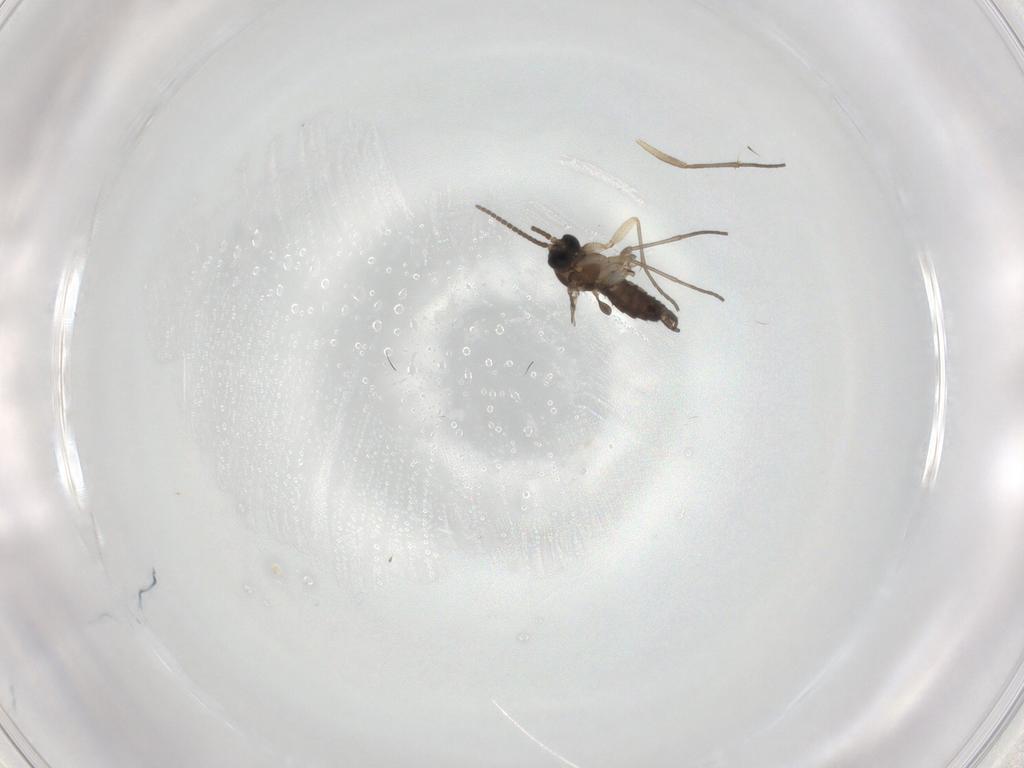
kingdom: Animalia
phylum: Arthropoda
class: Insecta
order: Diptera
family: Sciaridae
